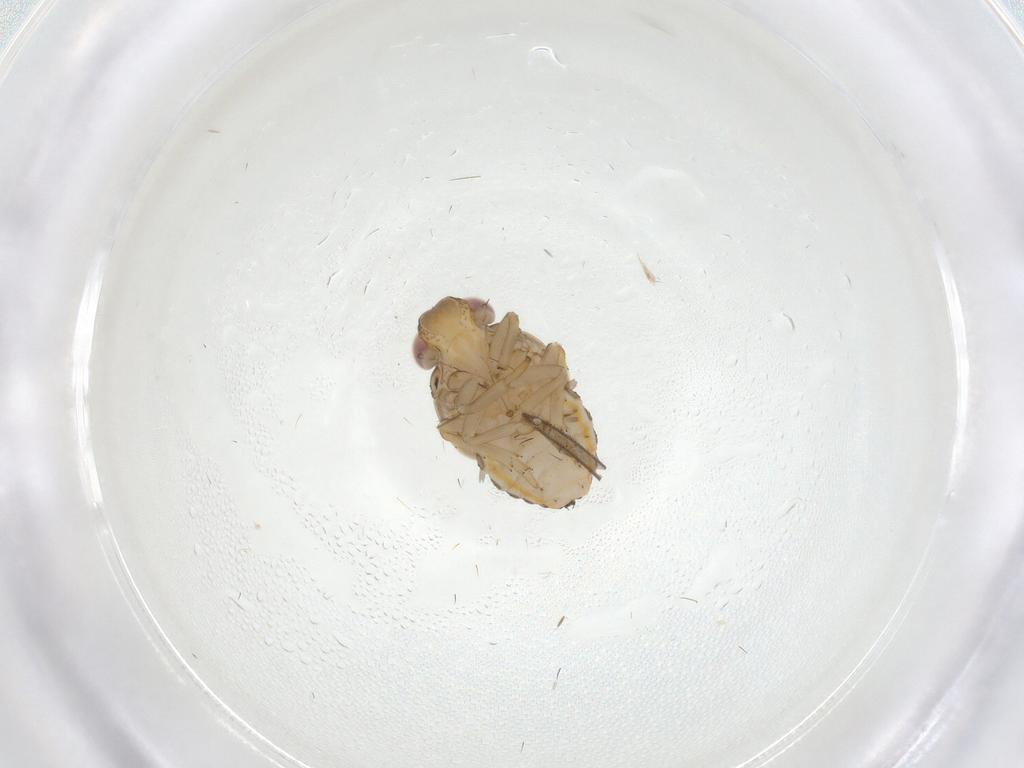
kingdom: Animalia
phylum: Arthropoda
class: Insecta
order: Hemiptera
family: Issidae
